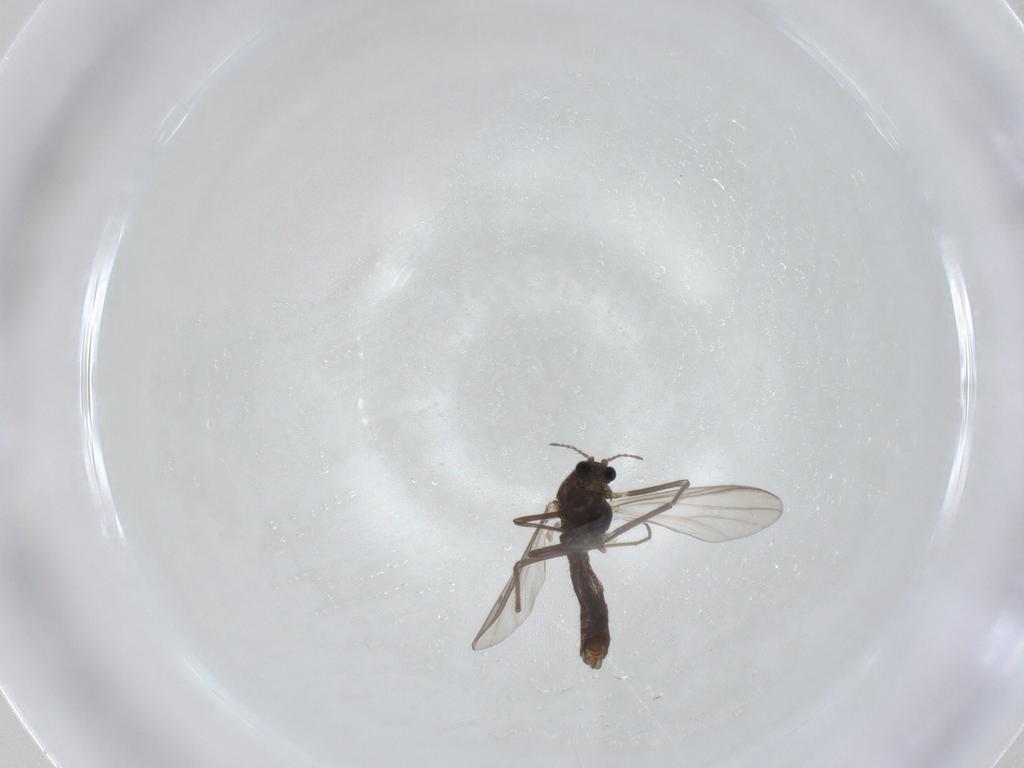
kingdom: Animalia
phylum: Arthropoda
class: Insecta
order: Diptera
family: Chironomidae
